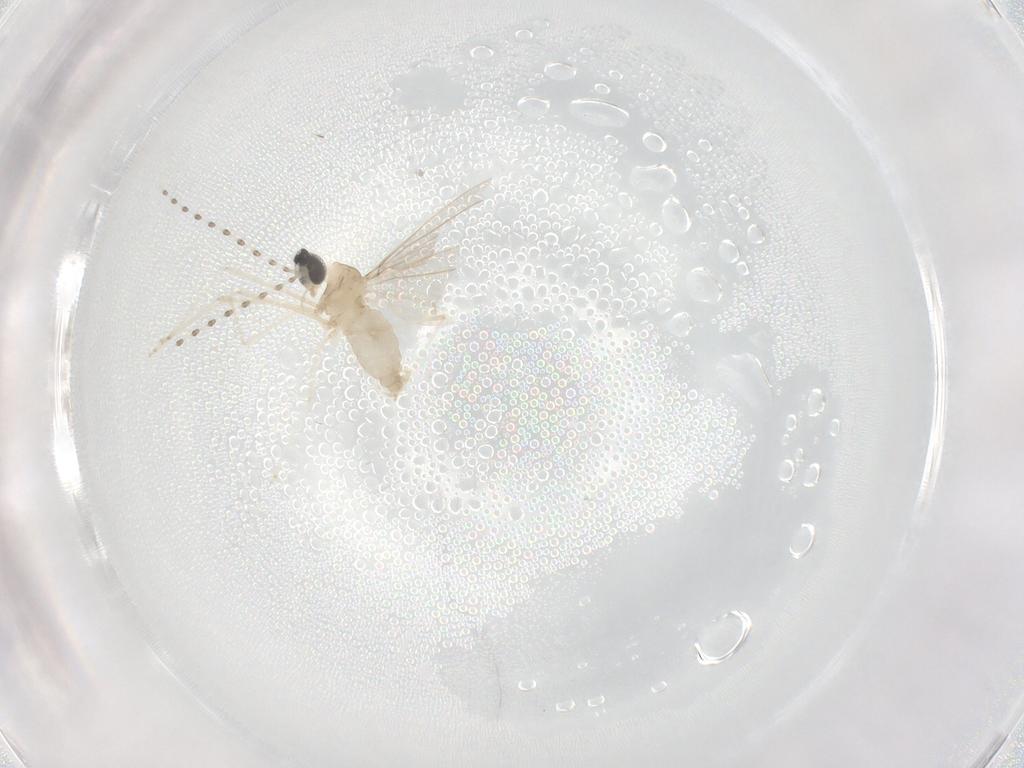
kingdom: Animalia
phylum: Arthropoda
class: Insecta
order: Diptera
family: Cecidomyiidae
